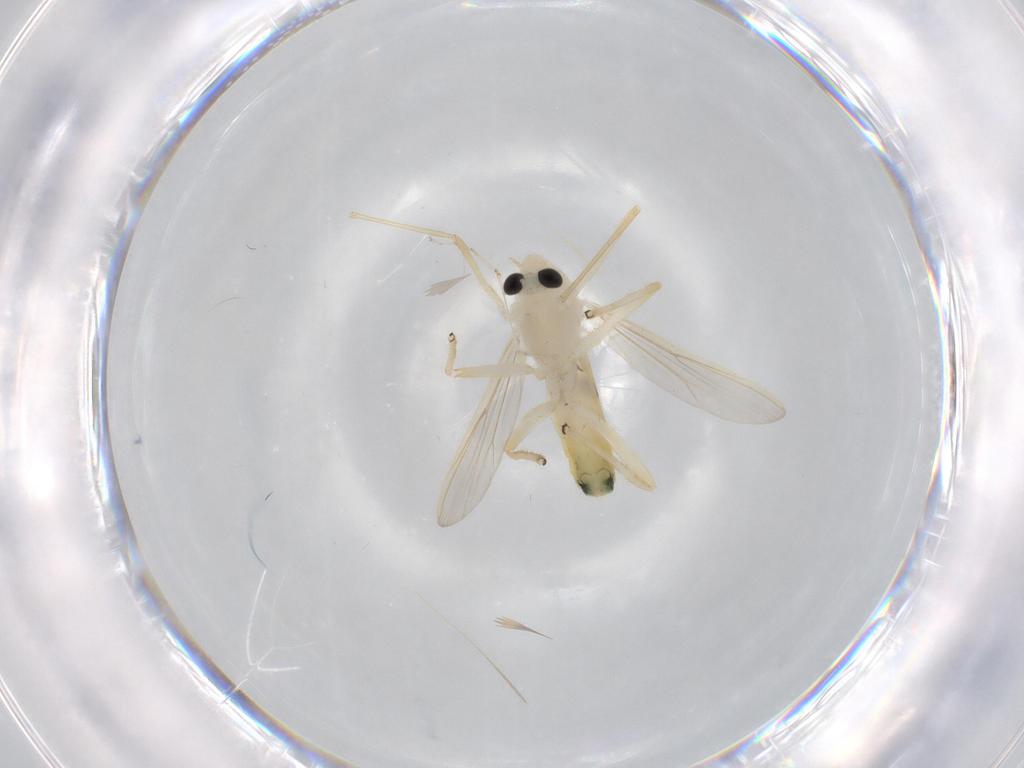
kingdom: Animalia
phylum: Arthropoda
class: Insecta
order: Diptera
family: Chironomidae
